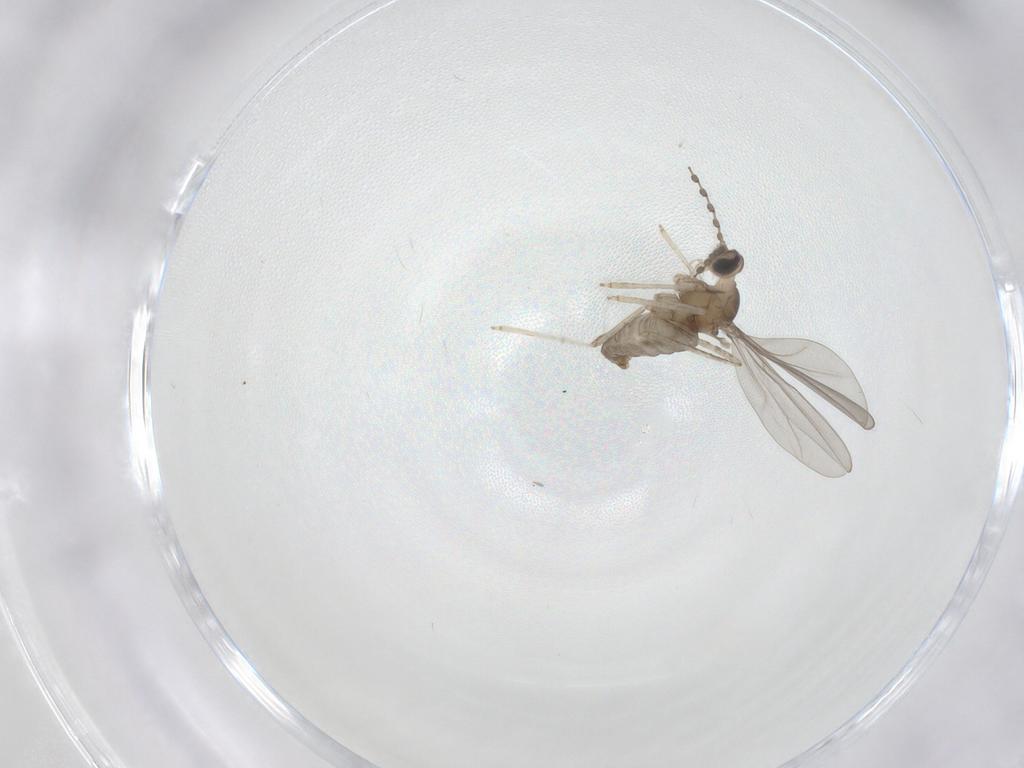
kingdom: Animalia
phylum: Arthropoda
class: Insecta
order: Diptera
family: Cecidomyiidae
